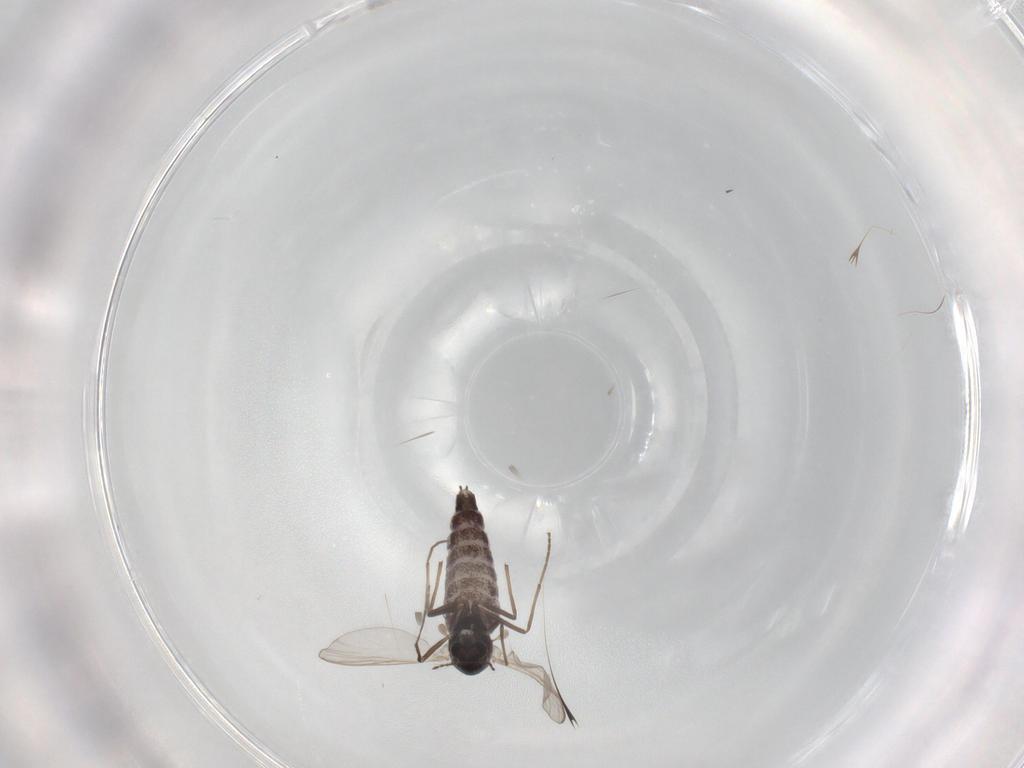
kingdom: Animalia
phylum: Arthropoda
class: Insecta
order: Diptera
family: Chironomidae
